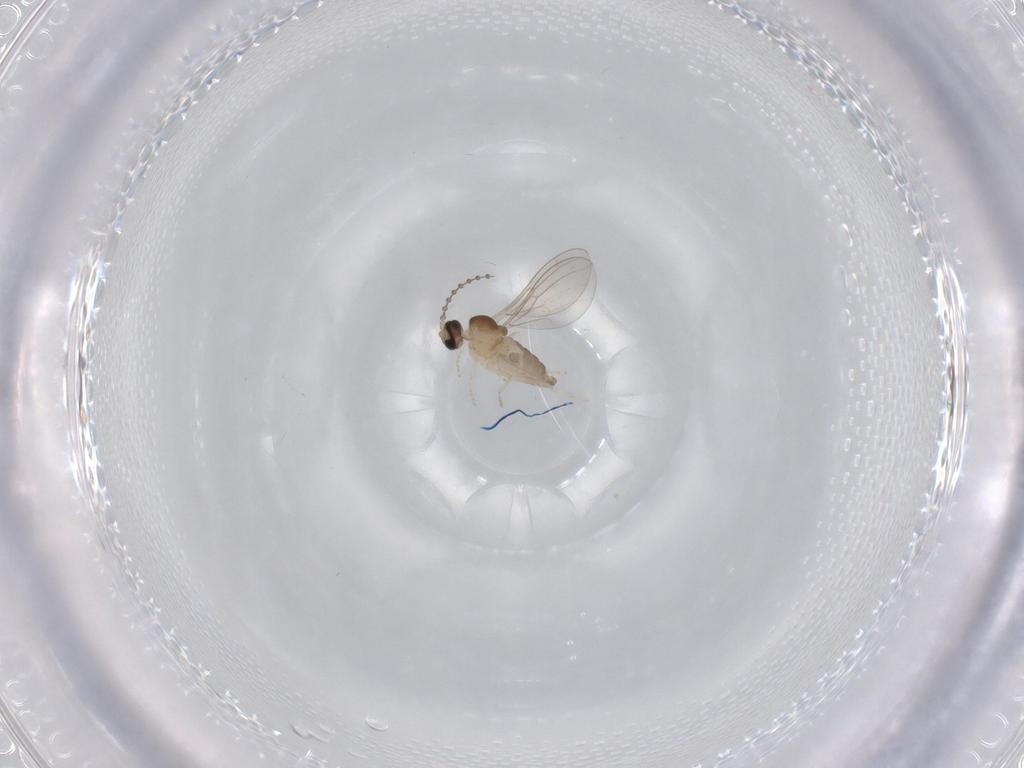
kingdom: Animalia
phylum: Arthropoda
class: Insecta
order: Diptera
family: Cecidomyiidae
